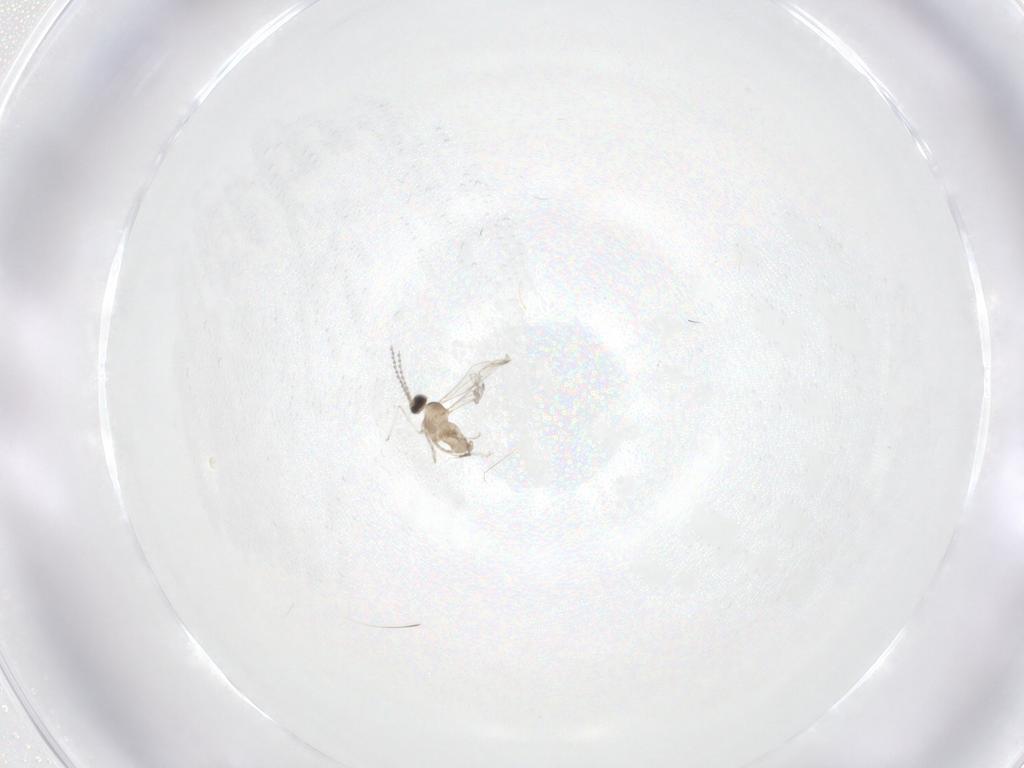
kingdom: Animalia
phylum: Arthropoda
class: Insecta
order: Diptera
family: Cecidomyiidae
